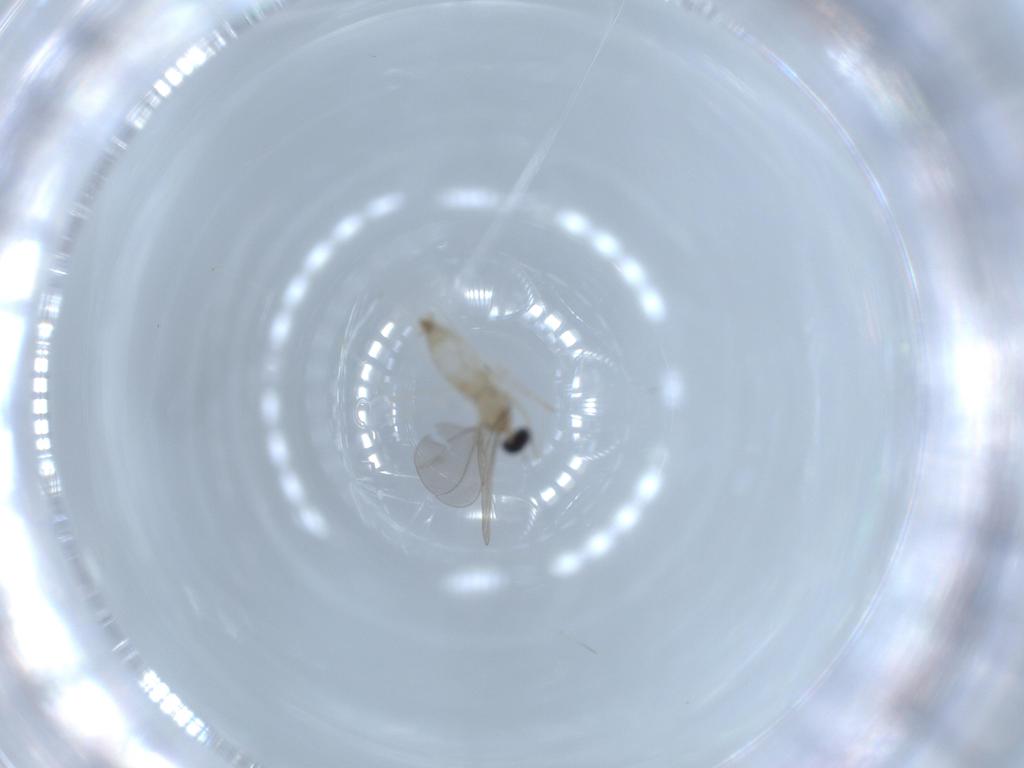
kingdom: Animalia
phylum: Arthropoda
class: Insecta
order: Diptera
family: Cecidomyiidae
